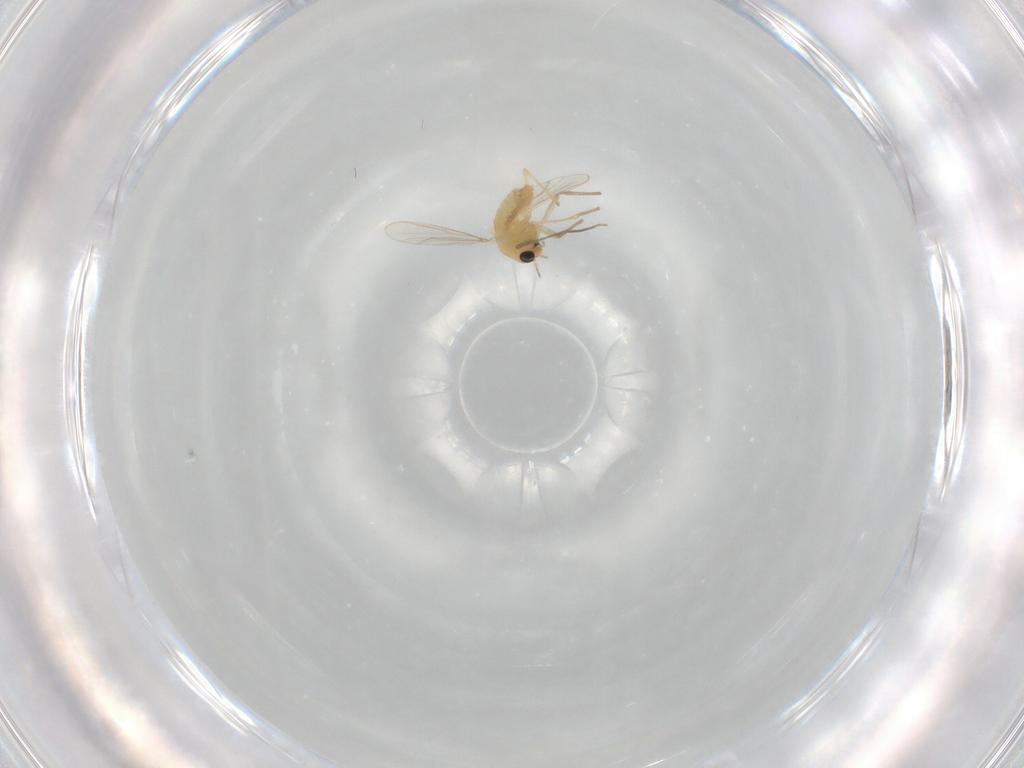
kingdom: Animalia
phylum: Arthropoda
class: Insecta
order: Diptera
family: Chironomidae
